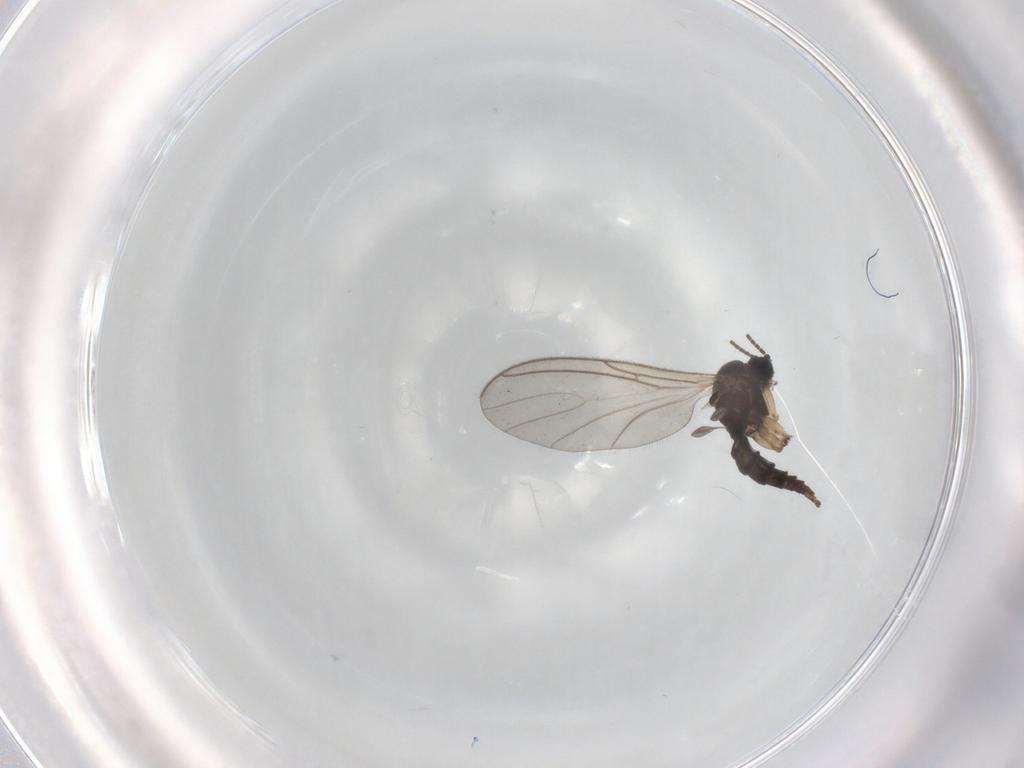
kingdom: Animalia
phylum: Arthropoda
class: Insecta
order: Diptera
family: Sciaridae
